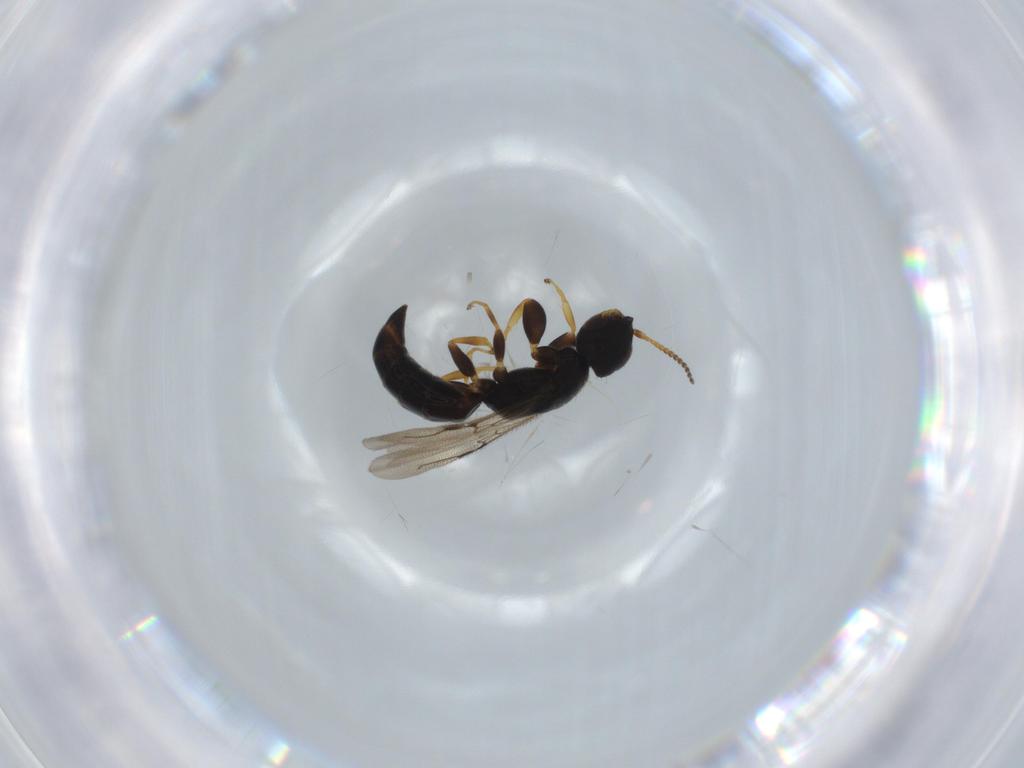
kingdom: Animalia
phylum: Arthropoda
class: Insecta
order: Hymenoptera
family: Bethylidae
